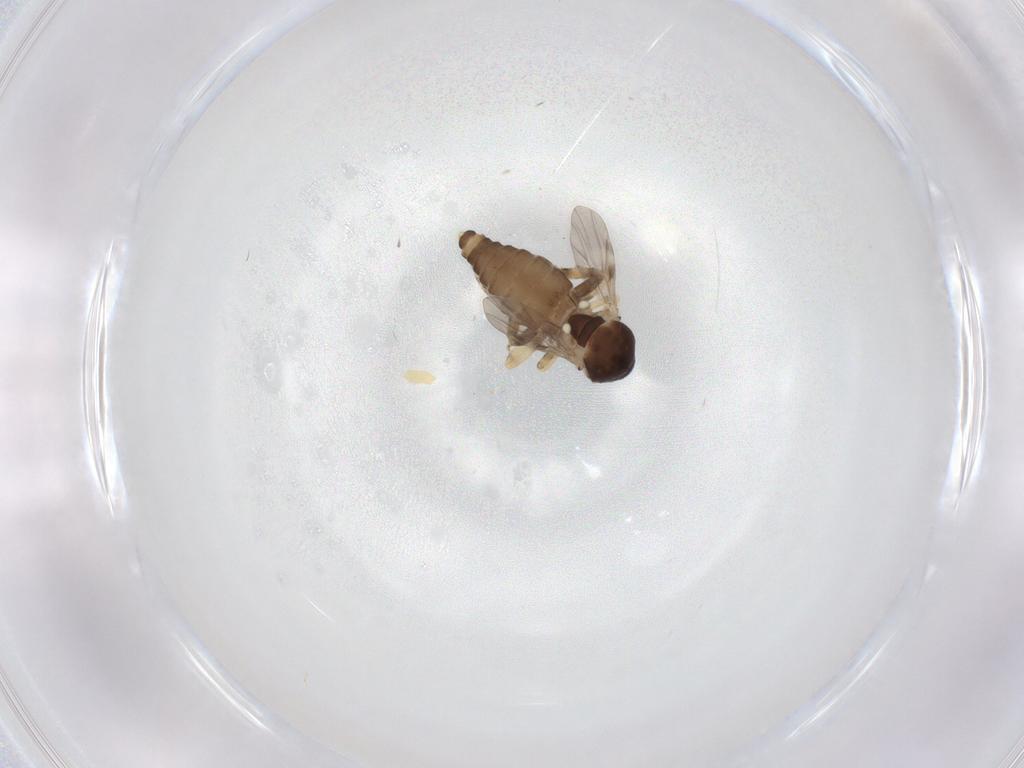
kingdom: Animalia
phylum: Arthropoda
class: Insecta
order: Diptera
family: Ceratopogonidae
